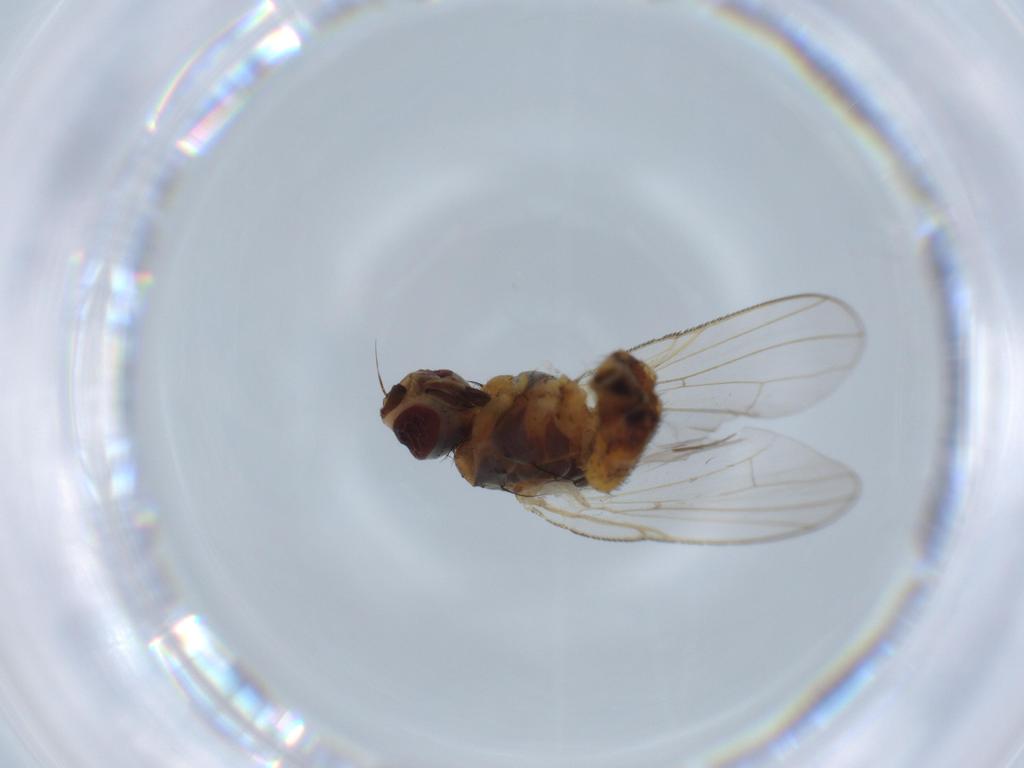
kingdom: Animalia
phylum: Arthropoda
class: Insecta
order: Diptera
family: Muscidae
